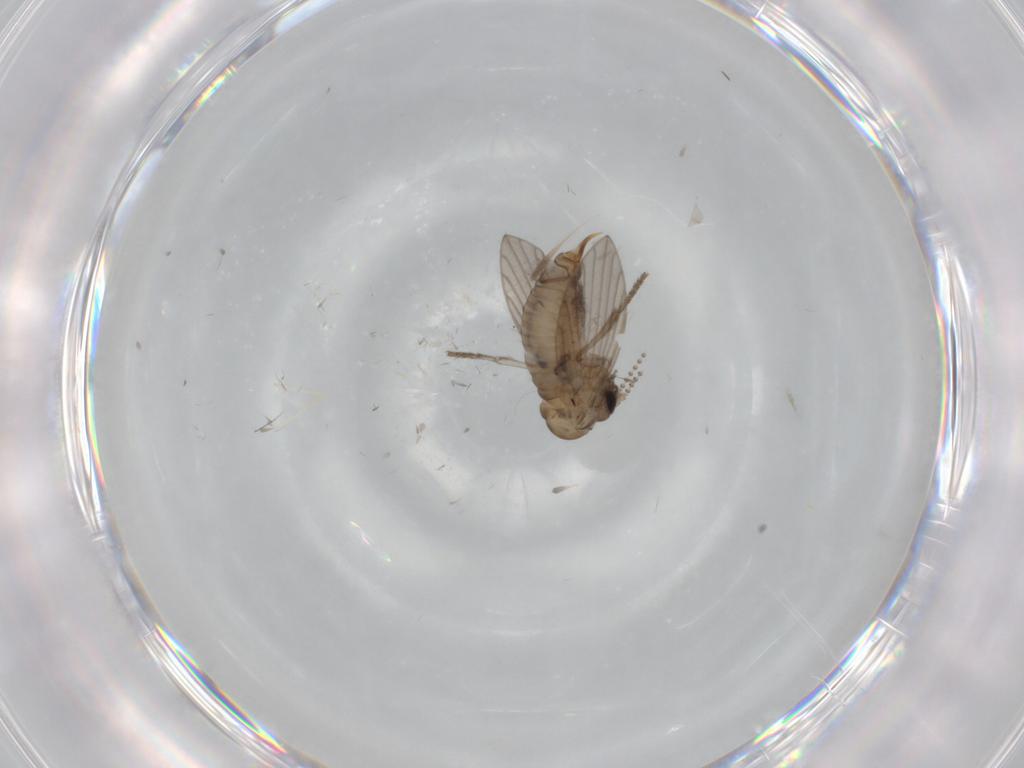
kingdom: Animalia
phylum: Arthropoda
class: Insecta
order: Diptera
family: Psychodidae
